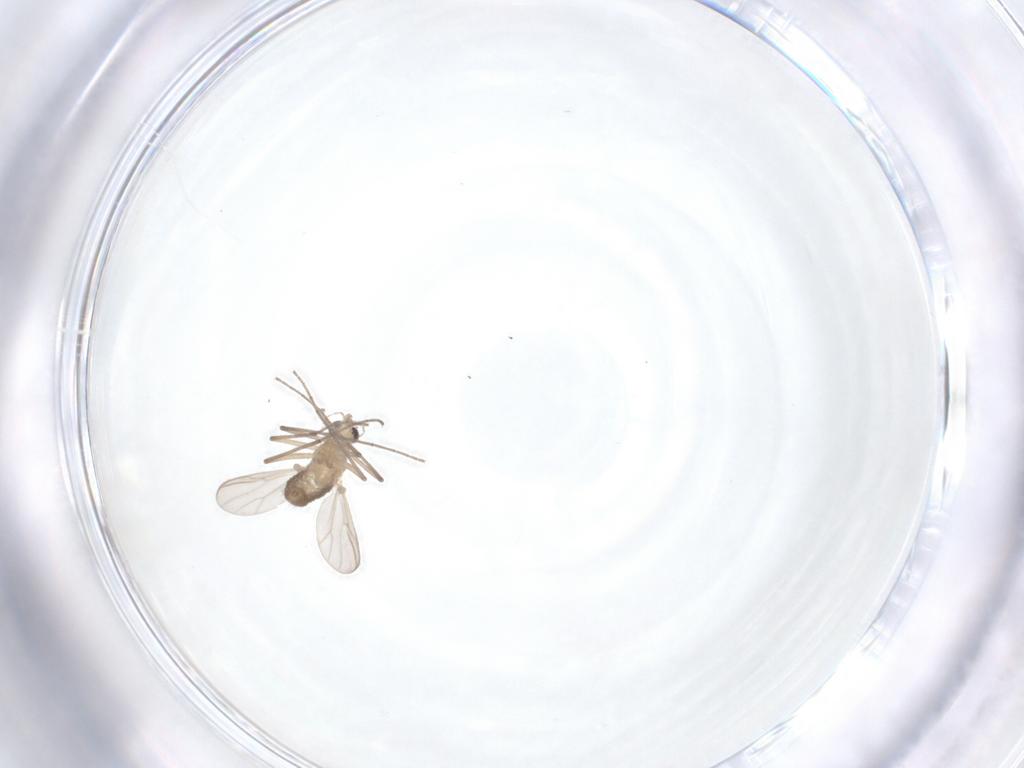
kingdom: Animalia
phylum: Arthropoda
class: Insecta
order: Diptera
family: Chironomidae
